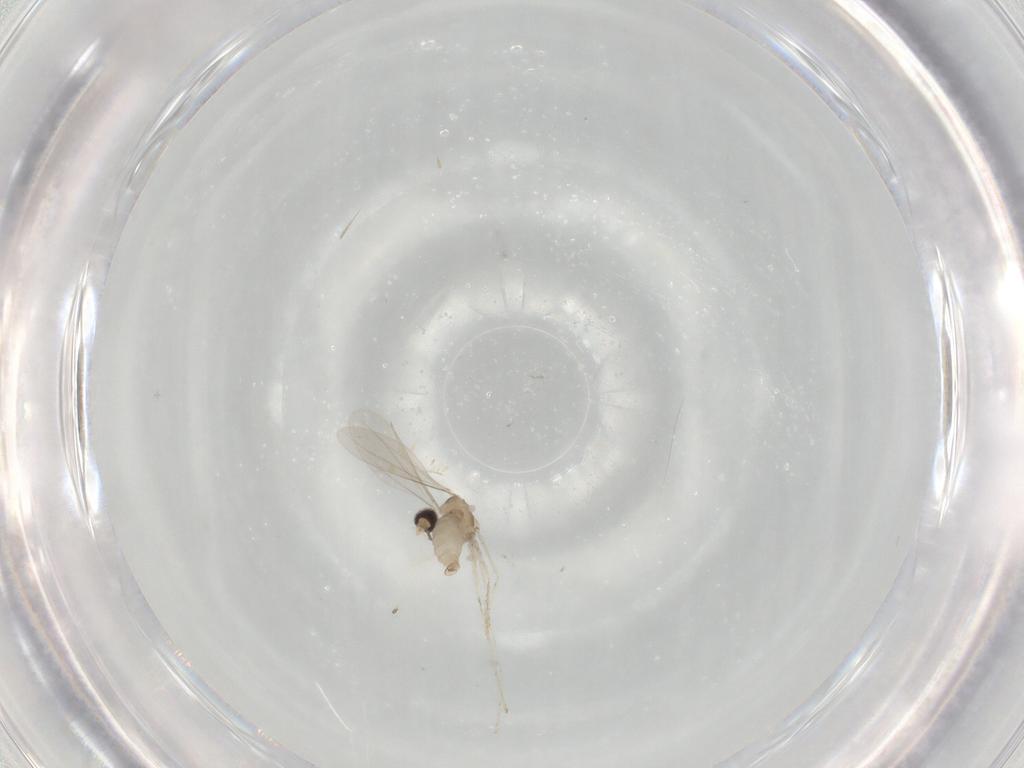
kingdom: Animalia
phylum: Arthropoda
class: Insecta
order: Diptera
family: Cecidomyiidae
